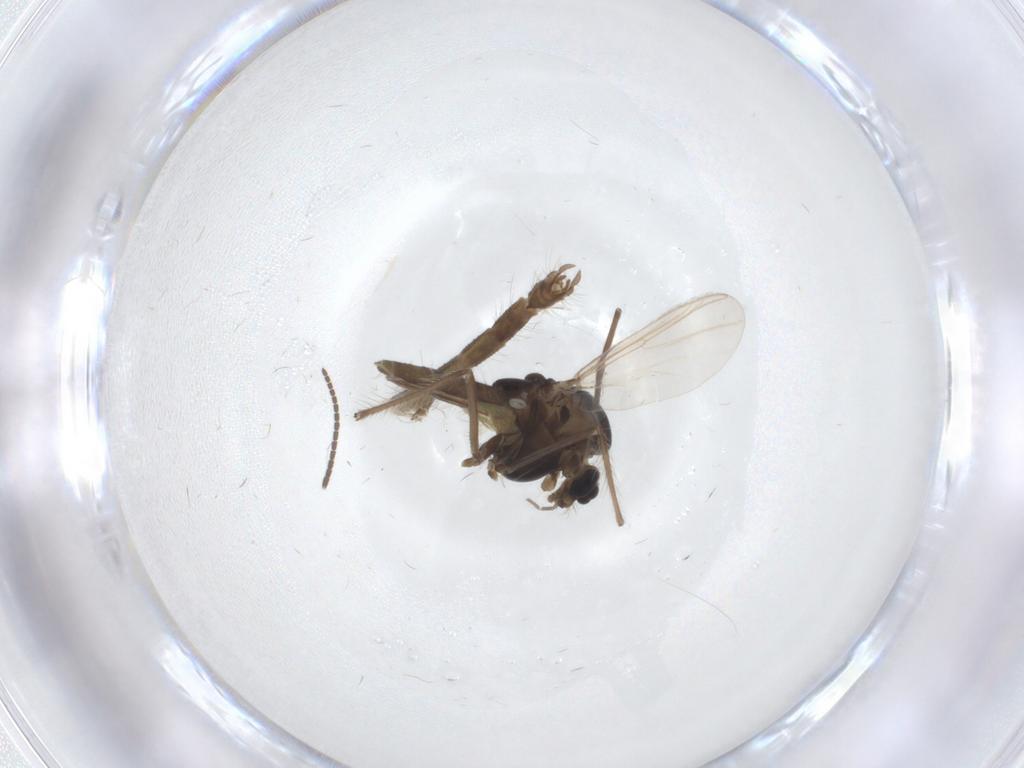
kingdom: Animalia
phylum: Arthropoda
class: Insecta
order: Diptera
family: Chironomidae
